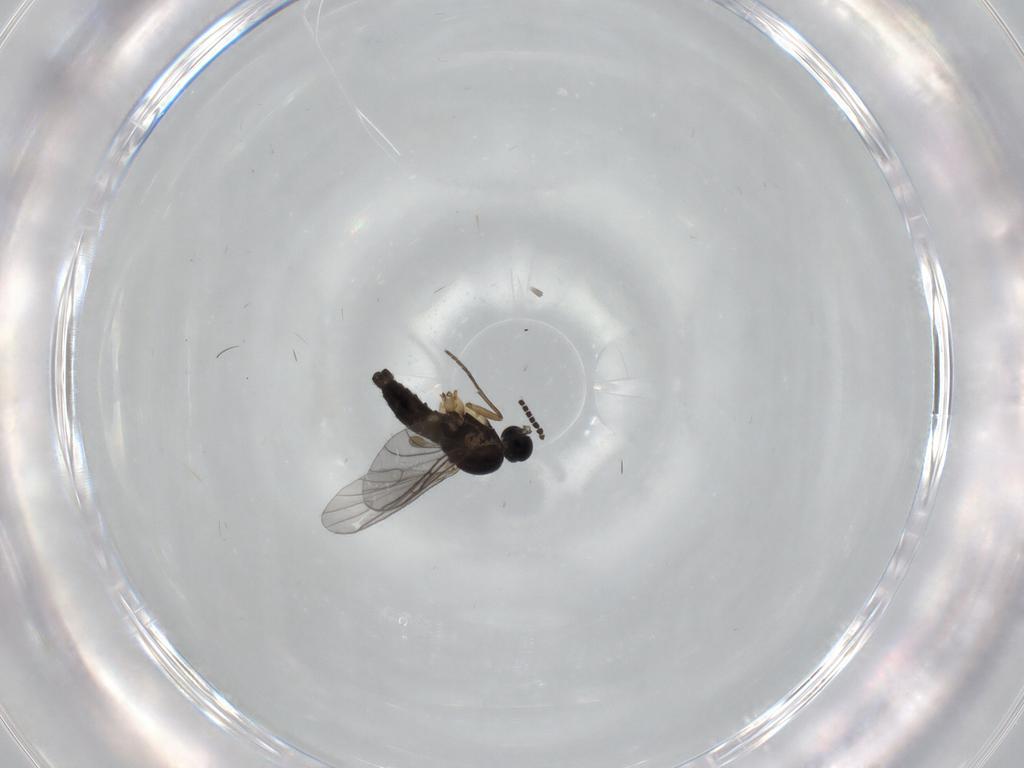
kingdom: Animalia
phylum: Arthropoda
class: Insecta
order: Diptera
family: Sciaridae
